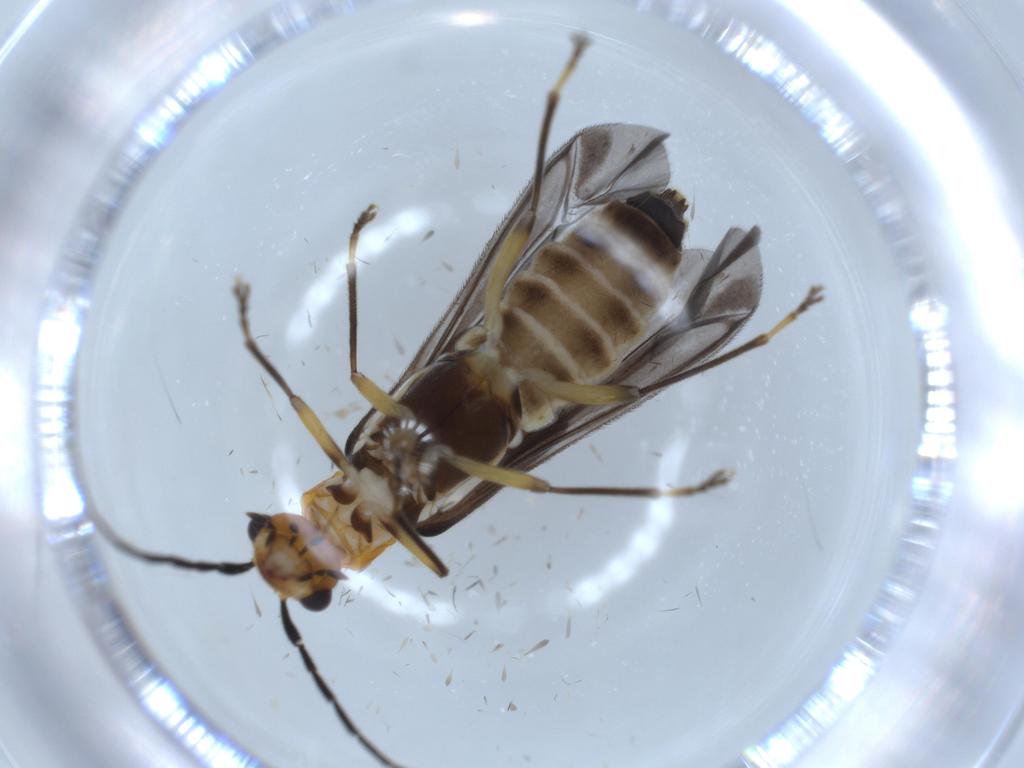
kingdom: Animalia
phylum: Arthropoda
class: Insecta
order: Coleoptera
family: Cantharidae
